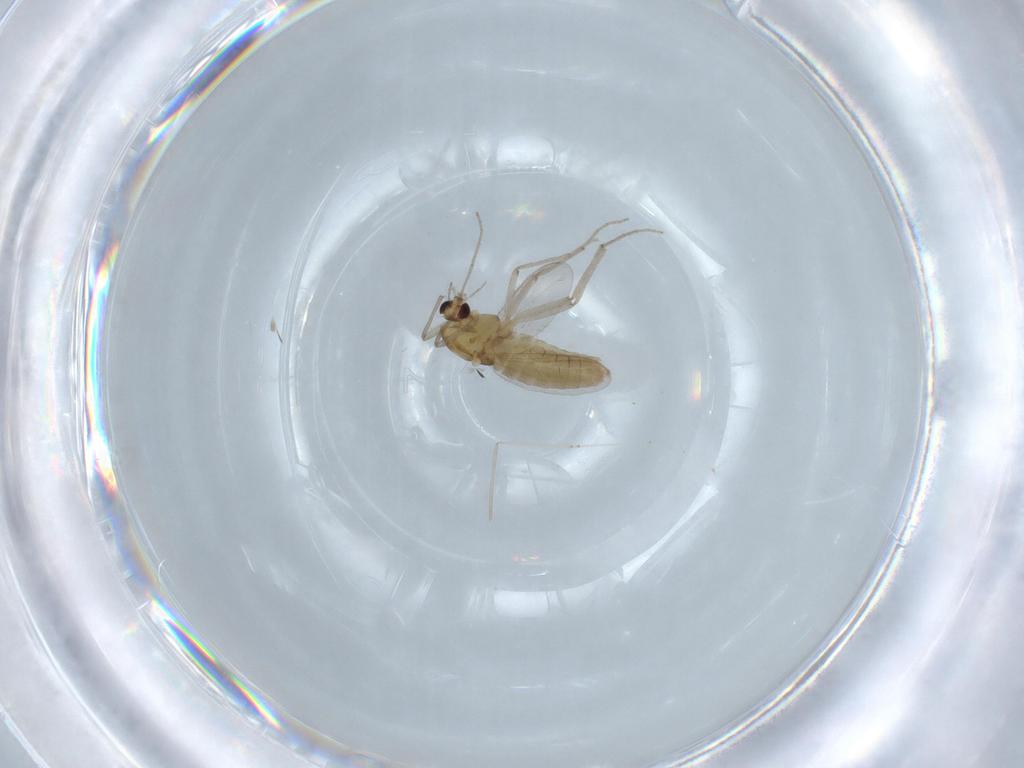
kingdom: Animalia
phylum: Arthropoda
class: Insecta
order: Diptera
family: Chironomidae
